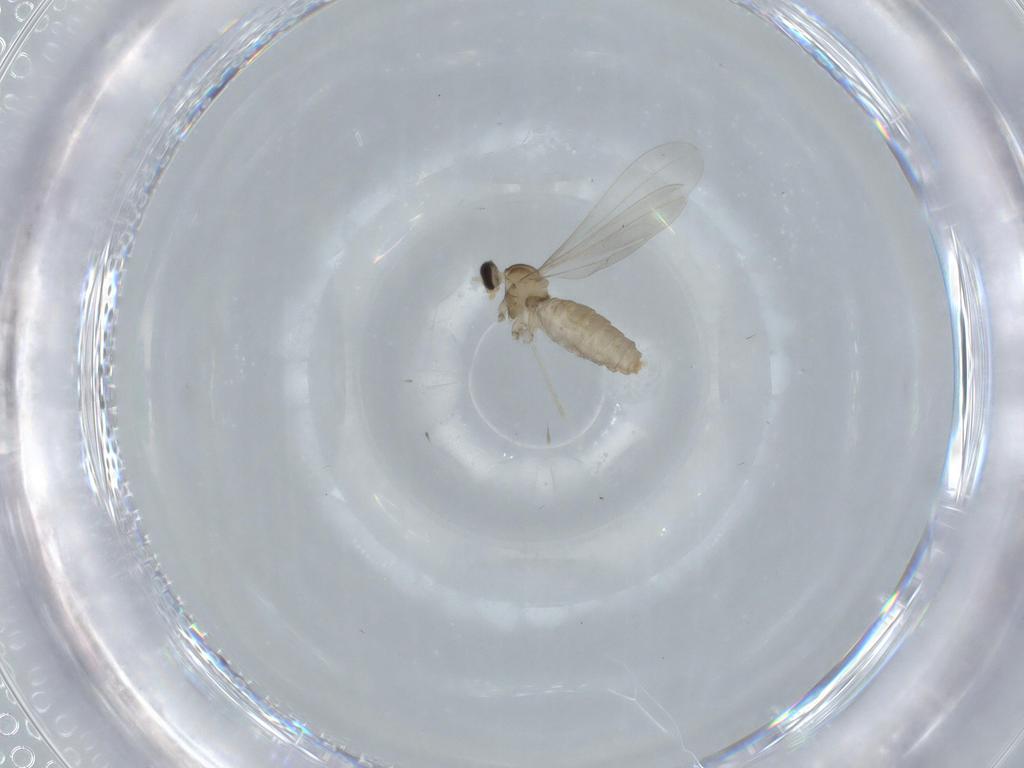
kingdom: Animalia
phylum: Arthropoda
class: Insecta
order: Diptera
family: Cecidomyiidae
